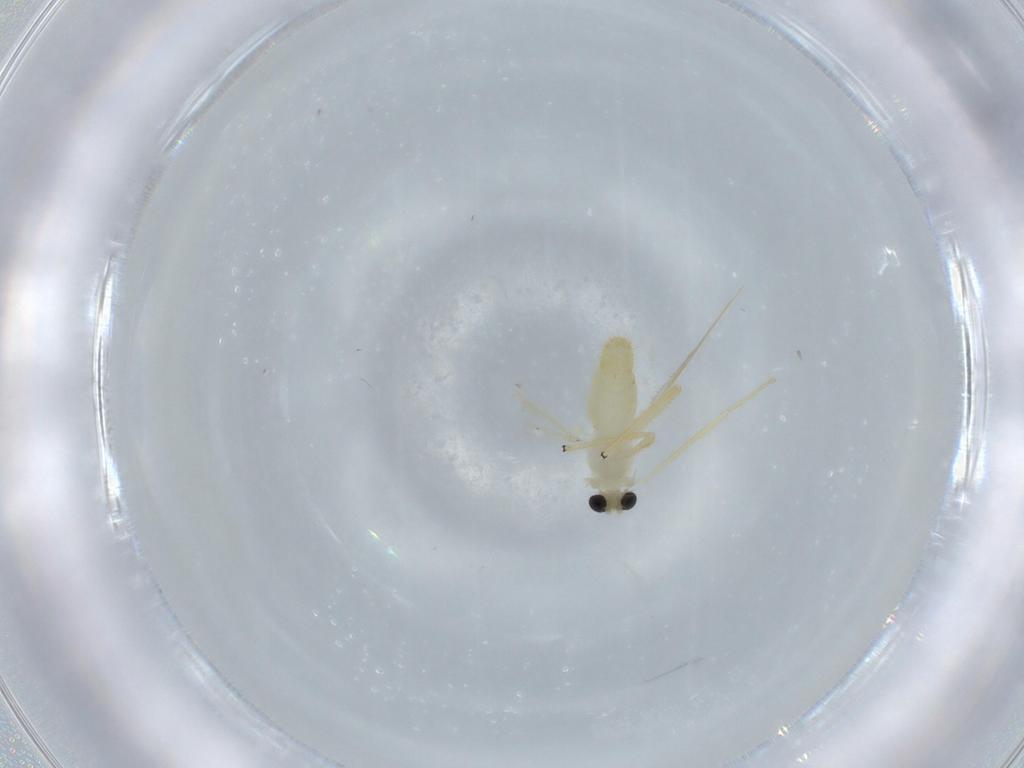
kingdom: Animalia
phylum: Arthropoda
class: Insecta
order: Diptera
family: Chironomidae
